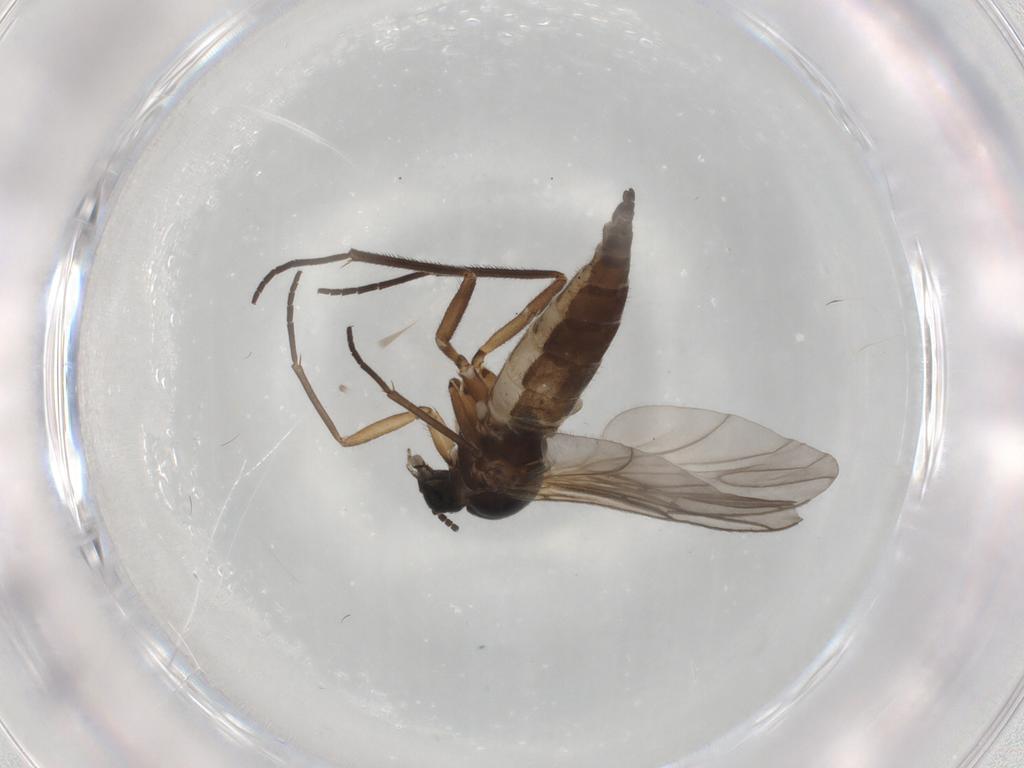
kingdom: Animalia
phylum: Arthropoda
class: Insecta
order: Diptera
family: Sciaridae
